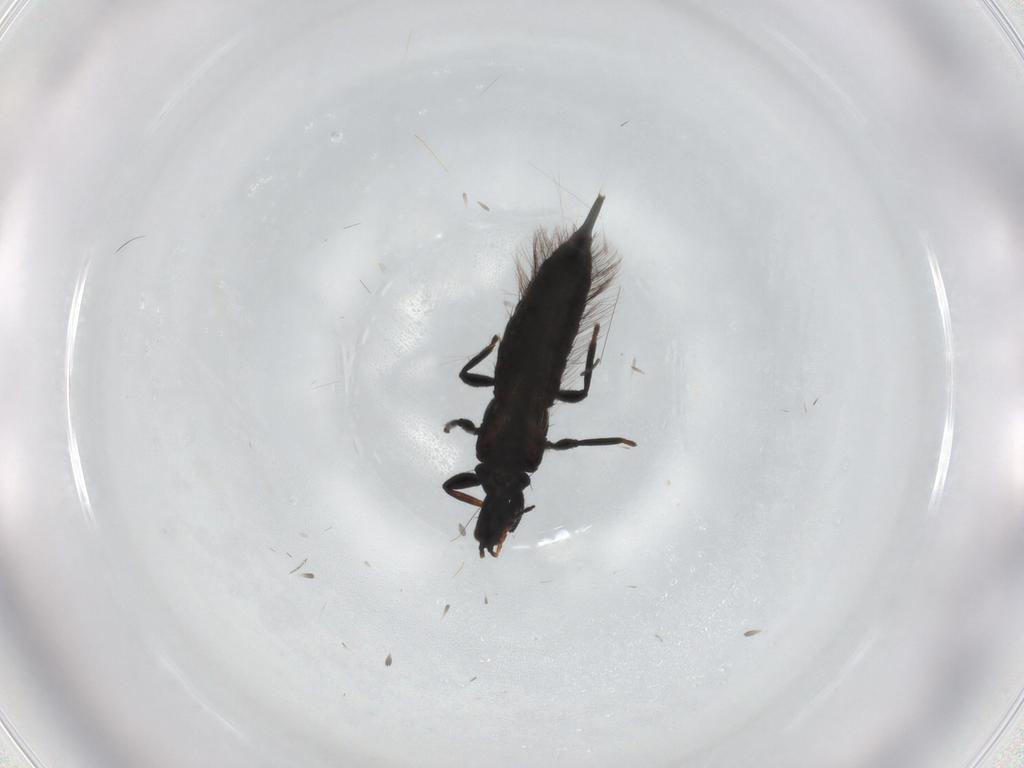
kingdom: Animalia
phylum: Arthropoda
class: Insecta
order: Thysanoptera
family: Phlaeothripidae
